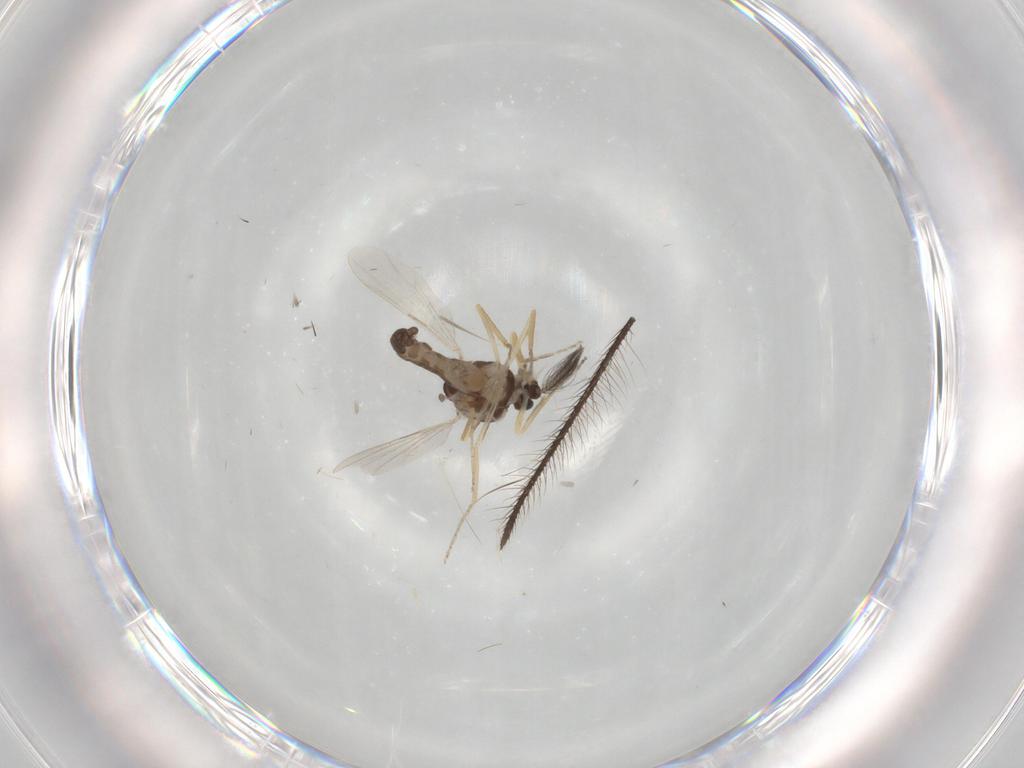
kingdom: Animalia
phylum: Arthropoda
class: Insecta
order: Diptera
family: Ceratopogonidae
